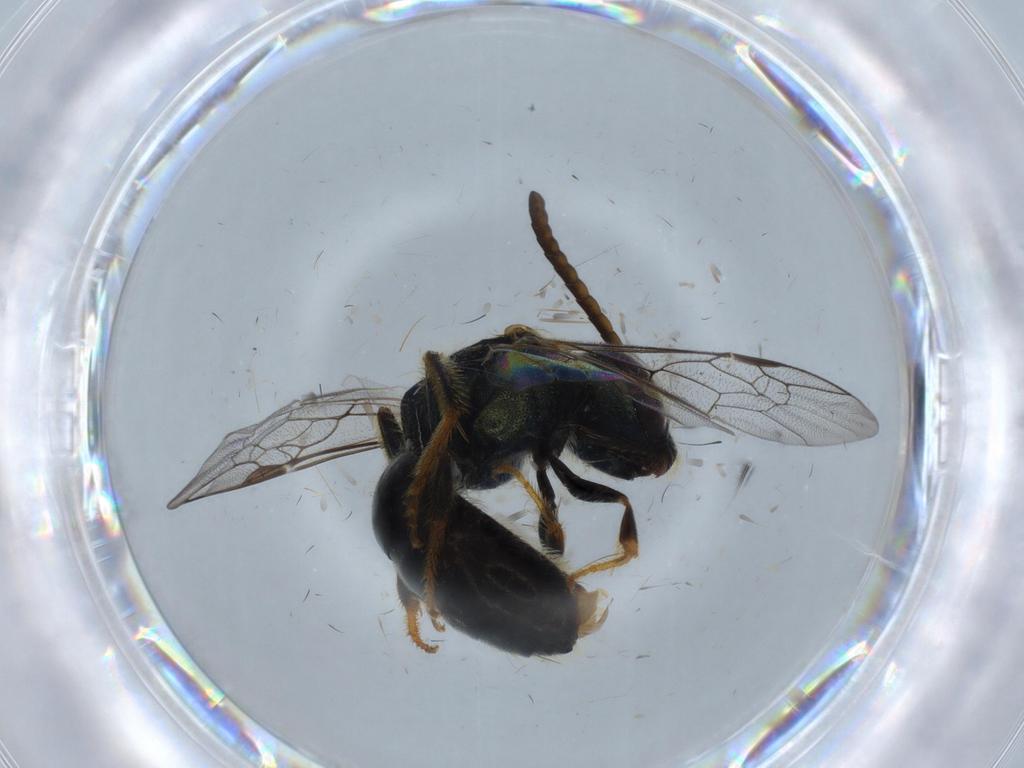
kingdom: Animalia
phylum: Arthropoda
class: Insecta
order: Hymenoptera
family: Halictidae
